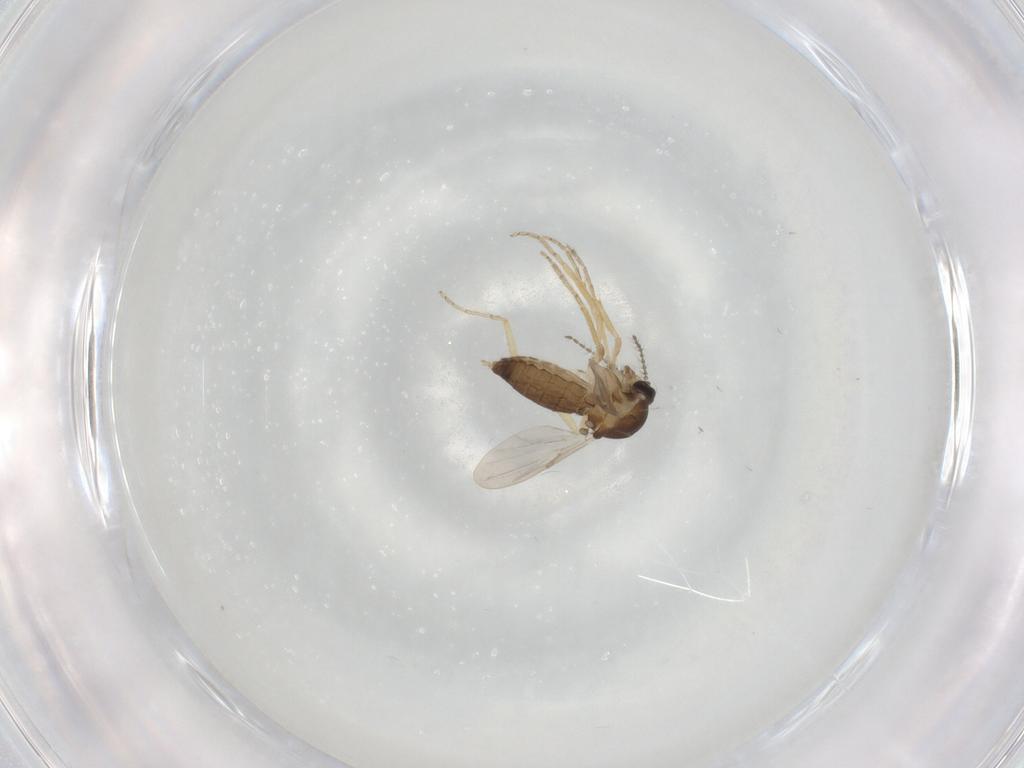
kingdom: Animalia
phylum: Arthropoda
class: Insecta
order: Diptera
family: Ceratopogonidae
